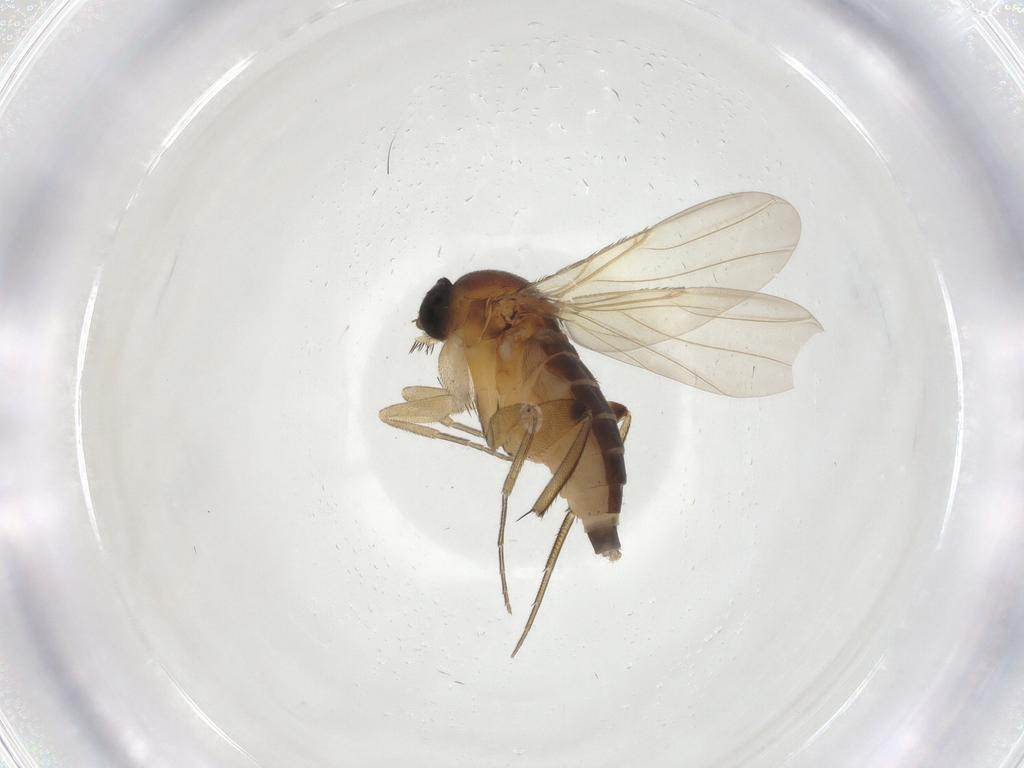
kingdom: Animalia
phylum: Arthropoda
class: Insecta
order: Diptera
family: Phoridae
